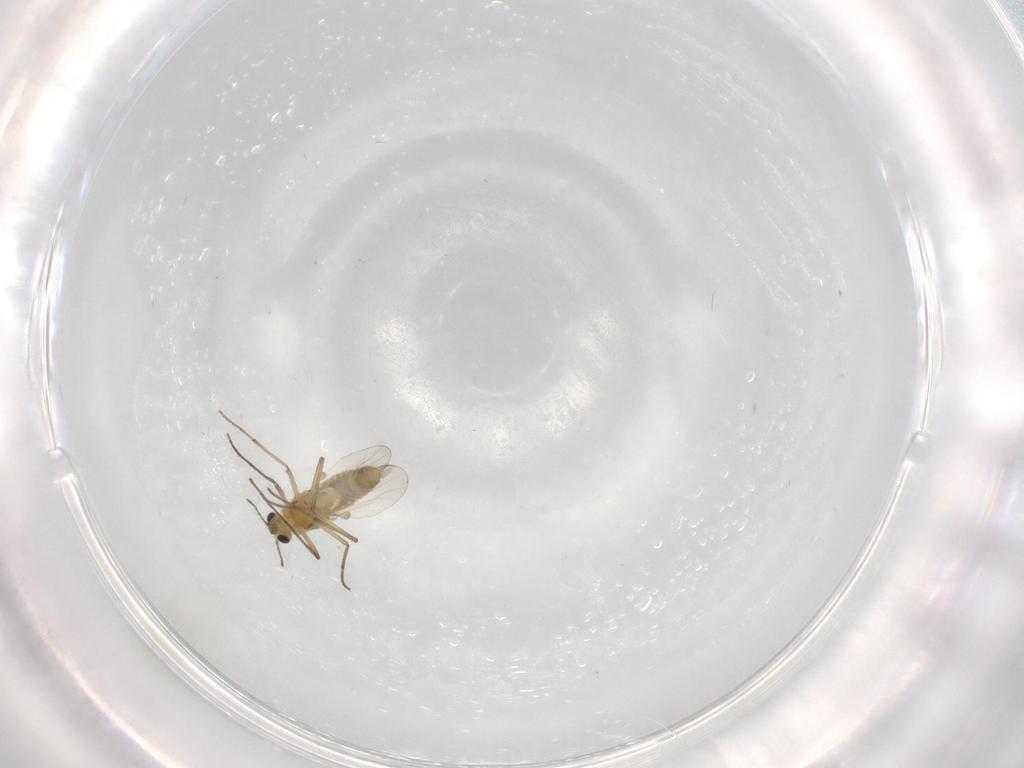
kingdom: Animalia
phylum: Arthropoda
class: Insecta
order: Diptera
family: Chironomidae
